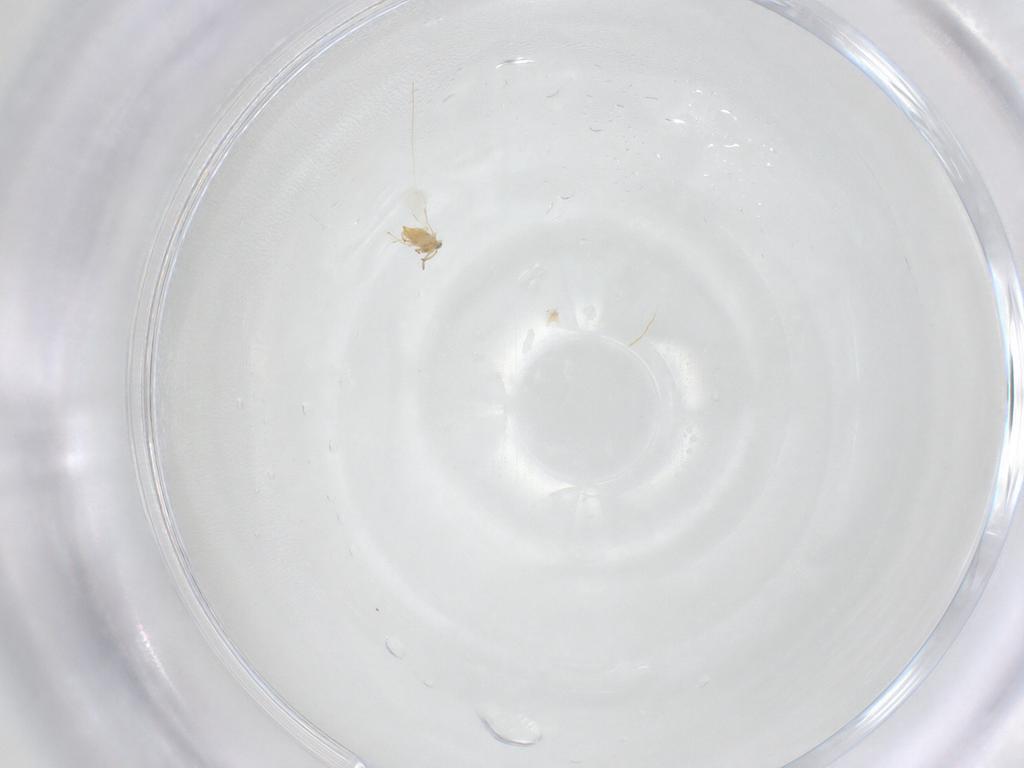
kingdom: Animalia
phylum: Arthropoda
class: Insecta
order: Hymenoptera
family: Aphelinidae
